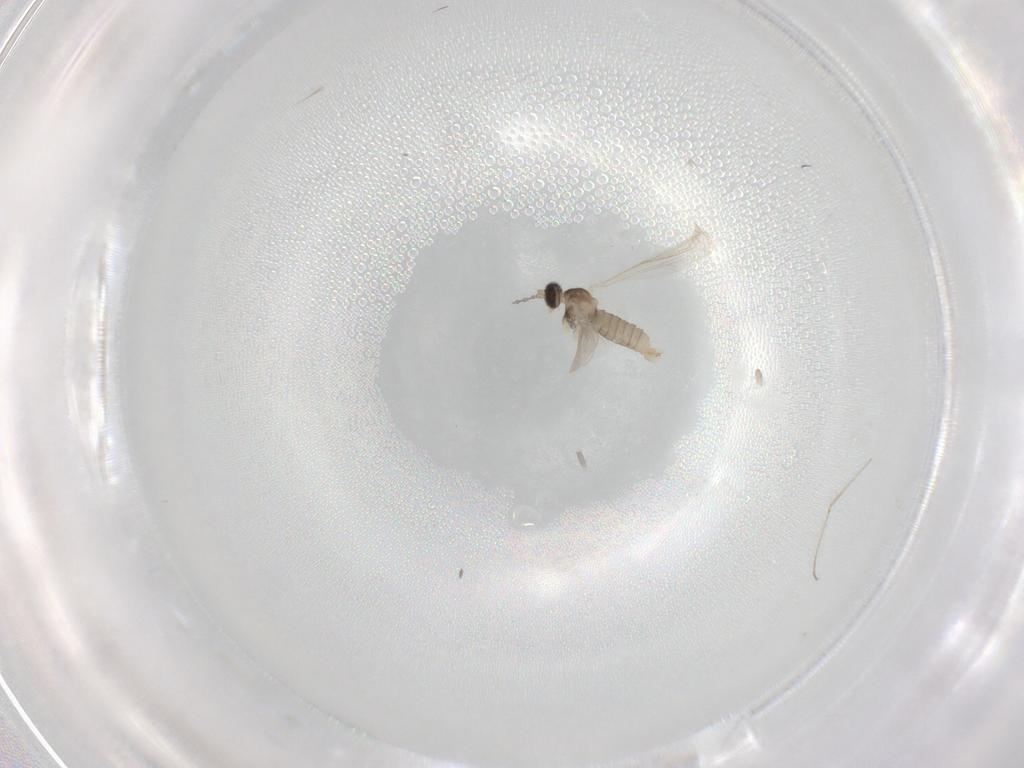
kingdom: Animalia
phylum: Arthropoda
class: Insecta
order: Diptera
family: Cecidomyiidae
